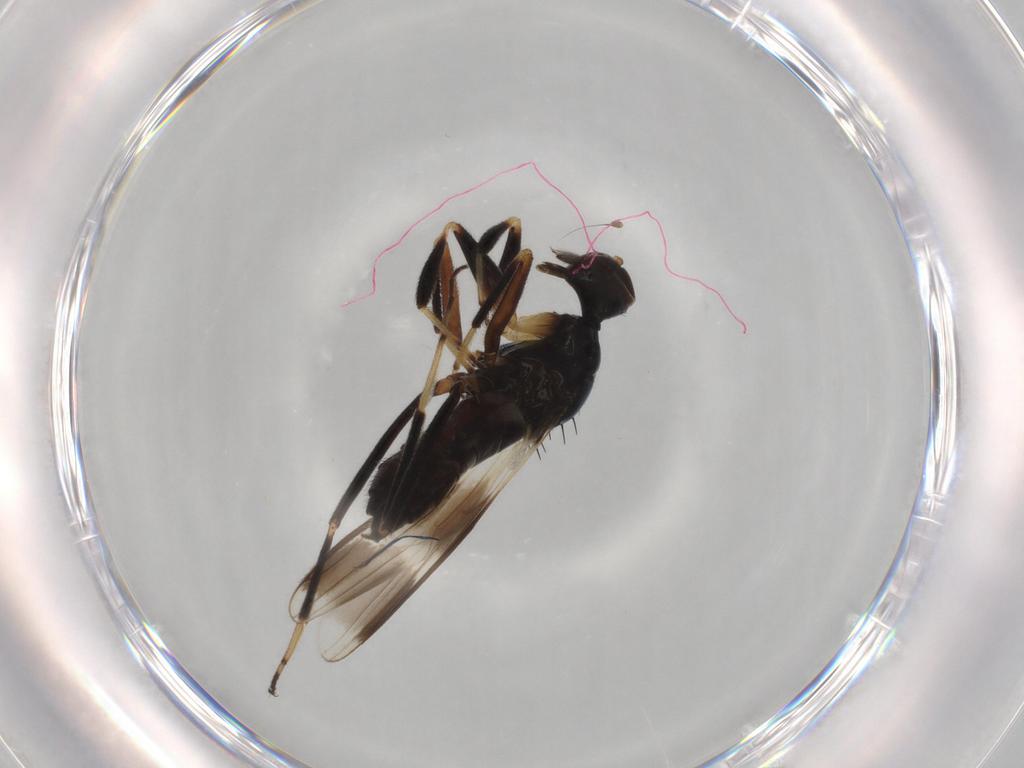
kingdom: Animalia
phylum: Arthropoda
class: Insecta
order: Diptera
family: Hybotidae
